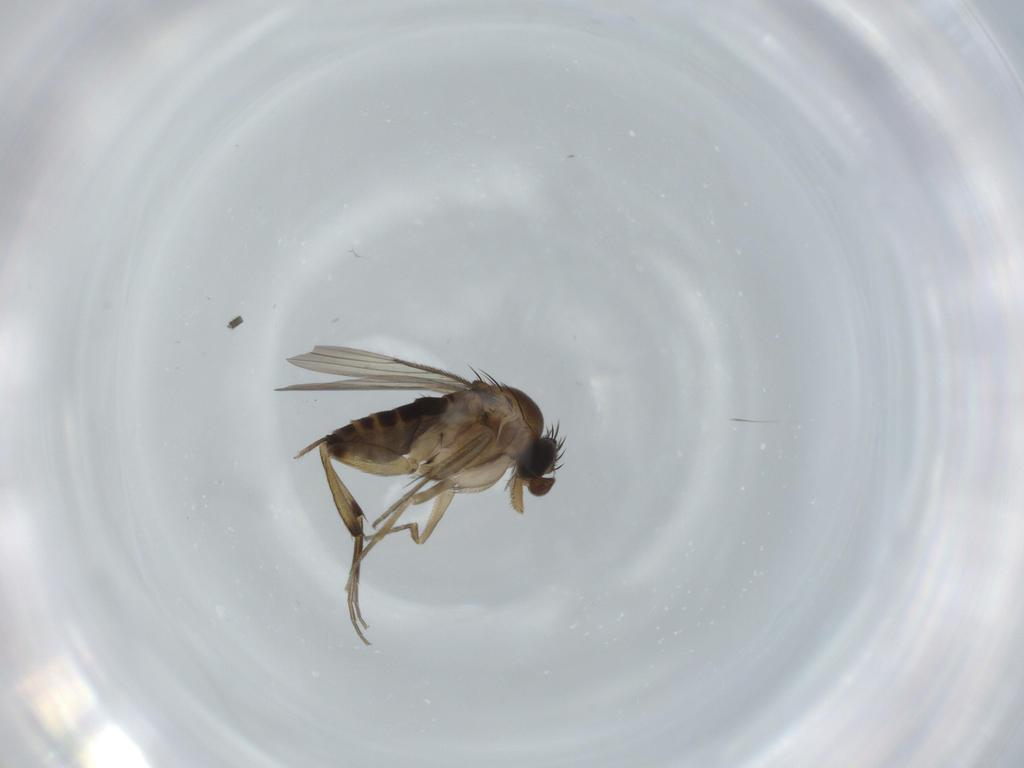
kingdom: Animalia
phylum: Arthropoda
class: Insecta
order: Diptera
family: Phoridae
